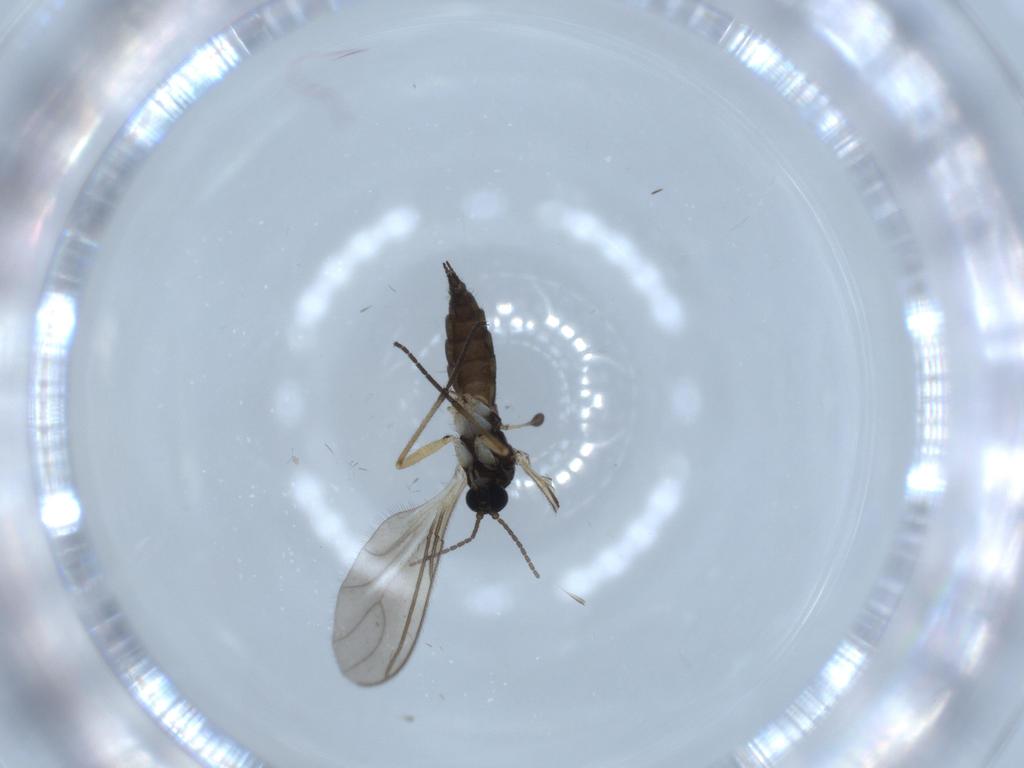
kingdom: Animalia
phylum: Arthropoda
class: Insecta
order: Diptera
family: Sciaridae
